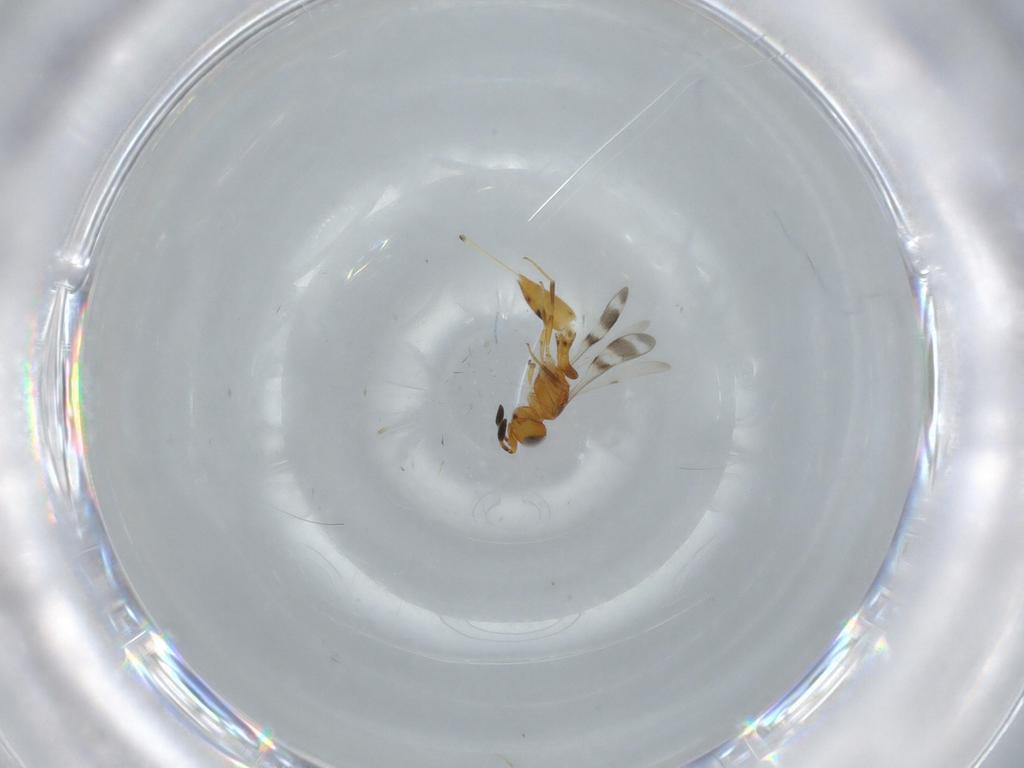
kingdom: Animalia
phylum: Arthropoda
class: Insecta
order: Hymenoptera
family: Scelionidae
